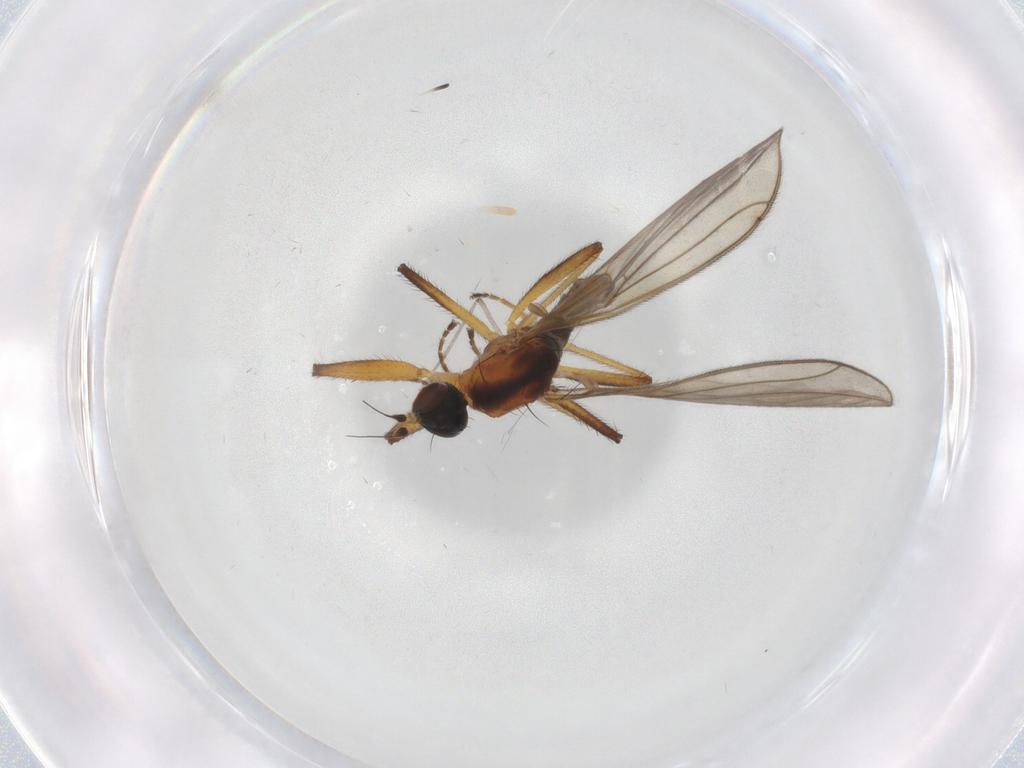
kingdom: Animalia
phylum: Arthropoda
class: Insecta
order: Diptera
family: Empididae
